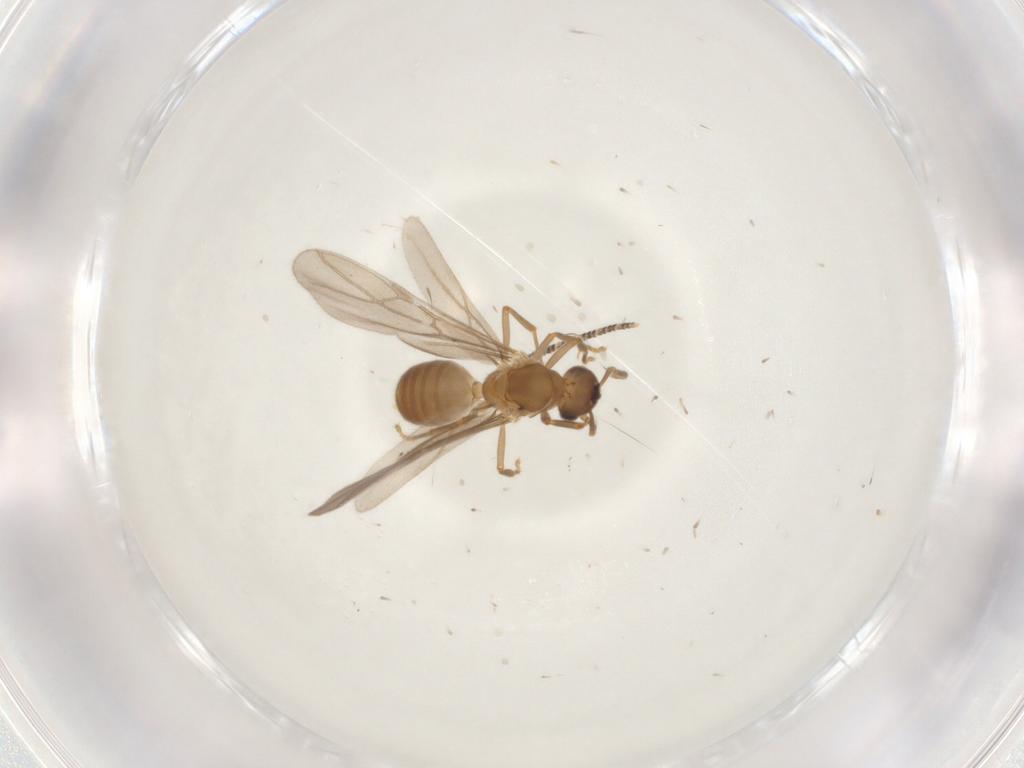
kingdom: Animalia
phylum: Arthropoda
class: Insecta
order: Hymenoptera
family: Formicidae
